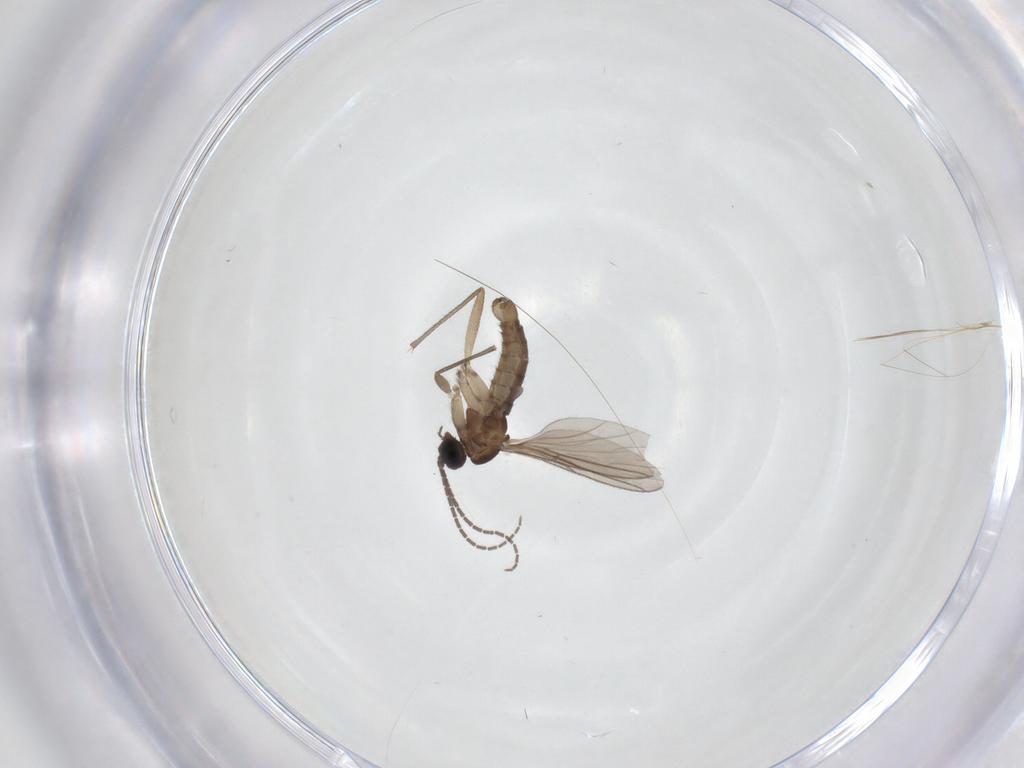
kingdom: Animalia
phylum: Arthropoda
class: Insecta
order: Diptera
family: Sciaridae
